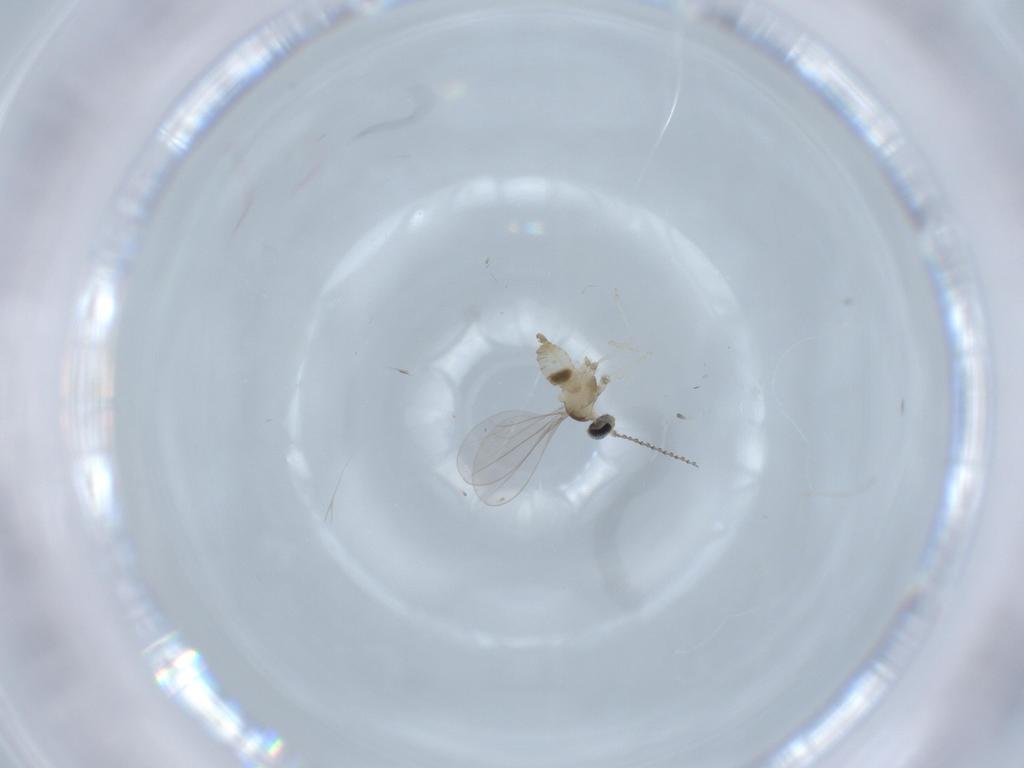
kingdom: Animalia
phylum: Arthropoda
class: Insecta
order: Diptera
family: Cecidomyiidae
